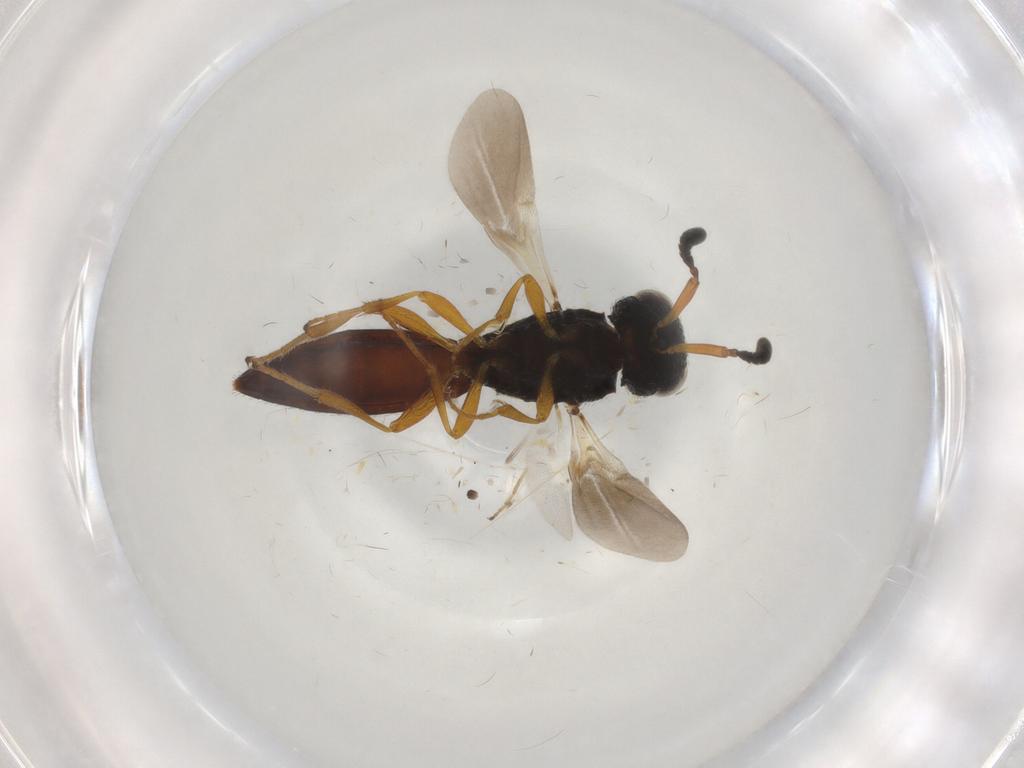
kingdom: Animalia
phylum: Arthropoda
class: Insecta
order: Hymenoptera
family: Scelionidae
